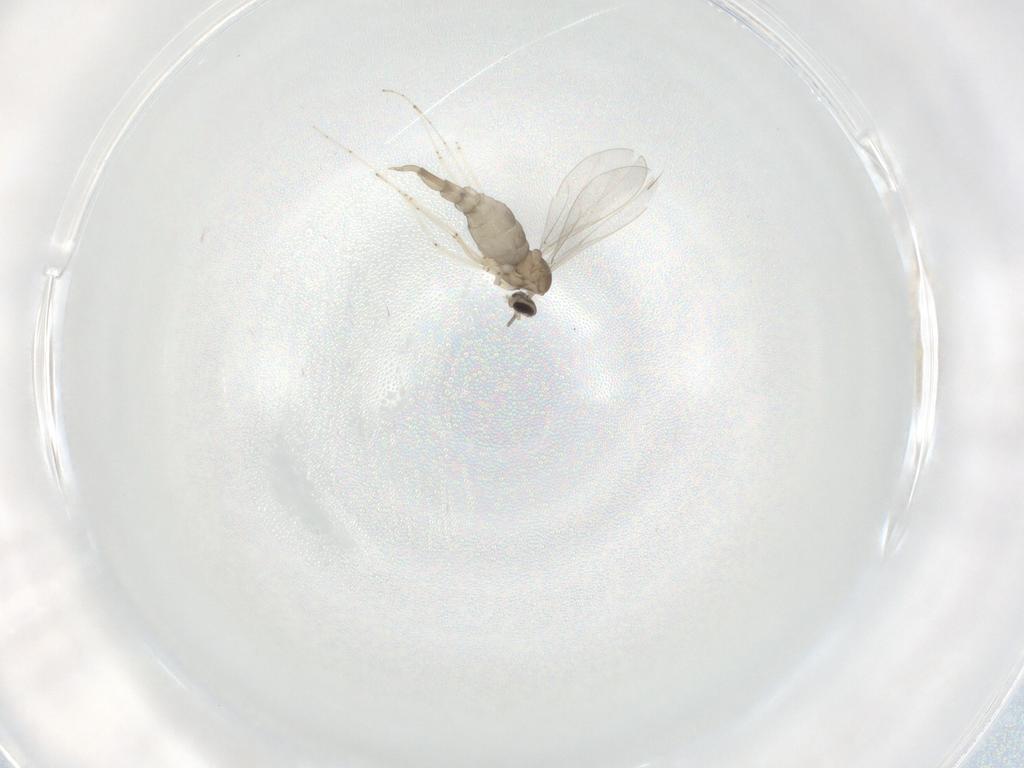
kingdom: Animalia
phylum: Arthropoda
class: Insecta
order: Diptera
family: Cecidomyiidae
